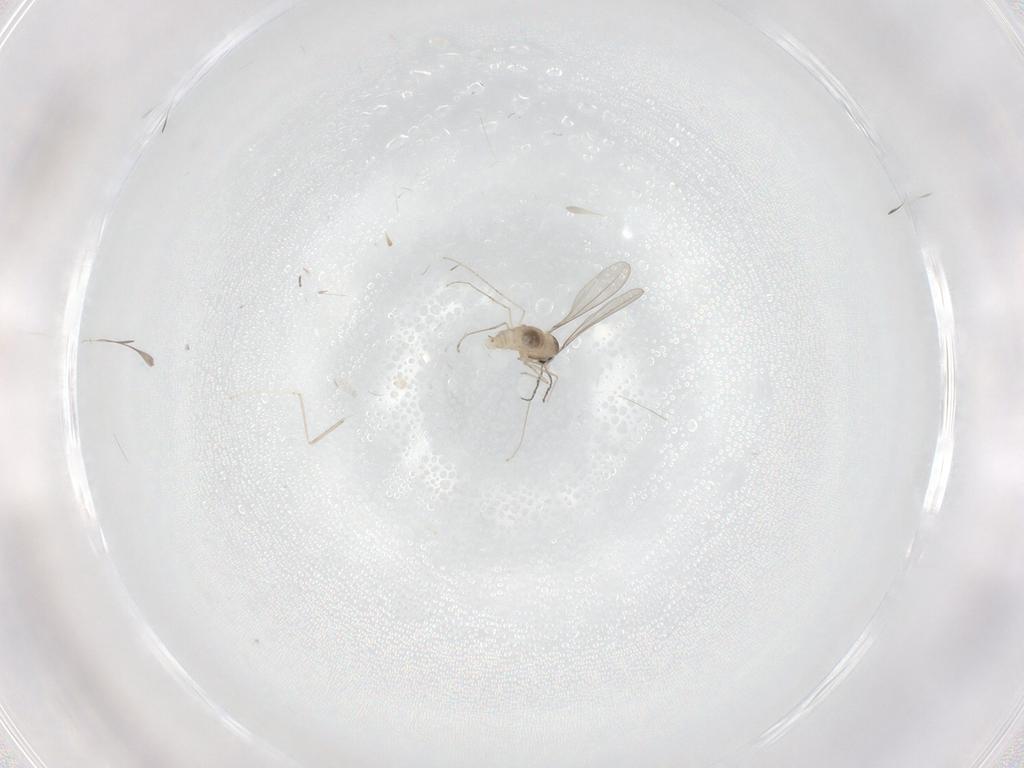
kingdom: Animalia
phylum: Arthropoda
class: Insecta
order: Diptera
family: Cecidomyiidae
